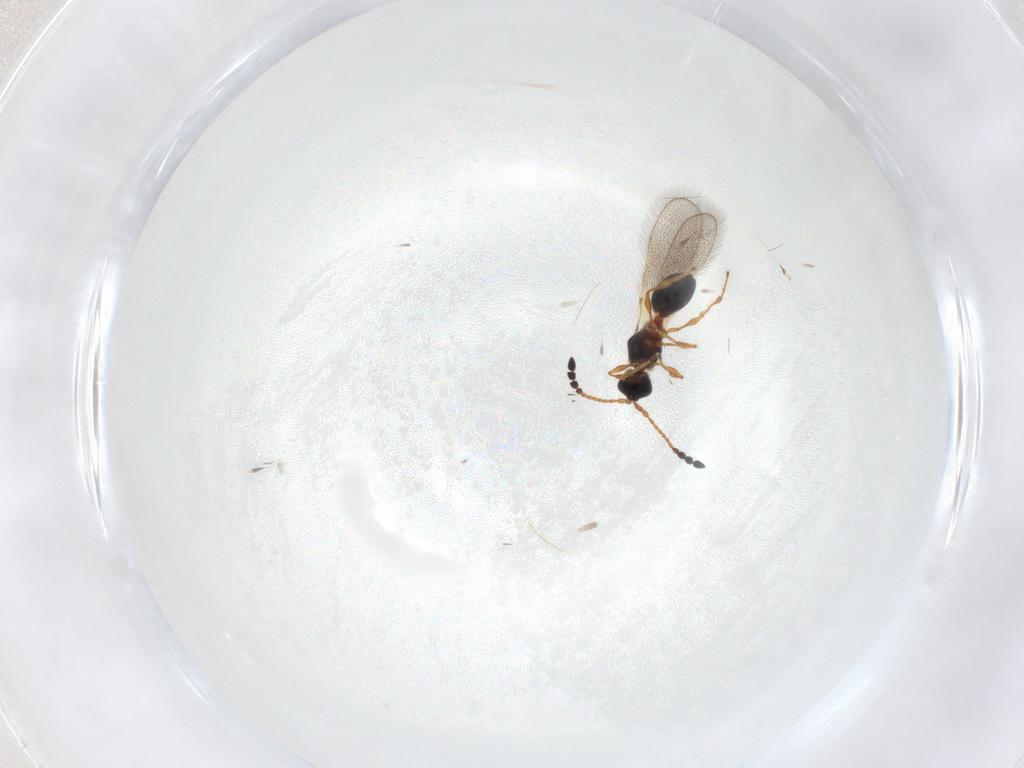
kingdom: Animalia
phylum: Arthropoda
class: Insecta
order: Hymenoptera
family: Diapriidae
